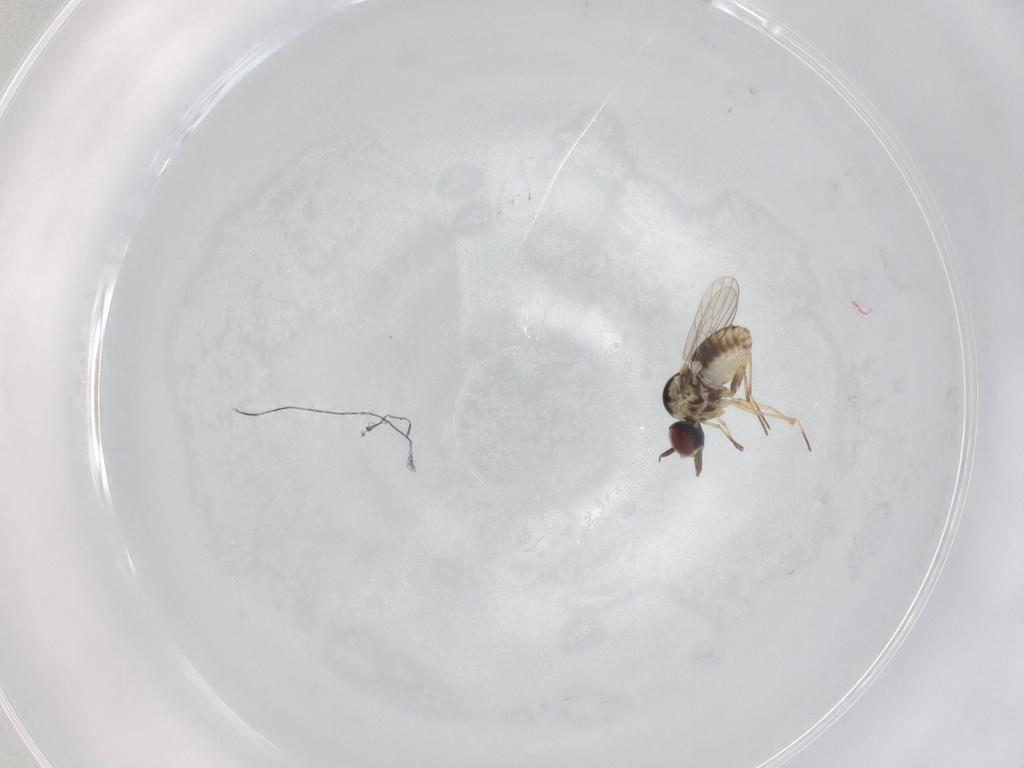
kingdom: Animalia
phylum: Arthropoda
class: Insecta
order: Diptera
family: Mythicomyiidae
